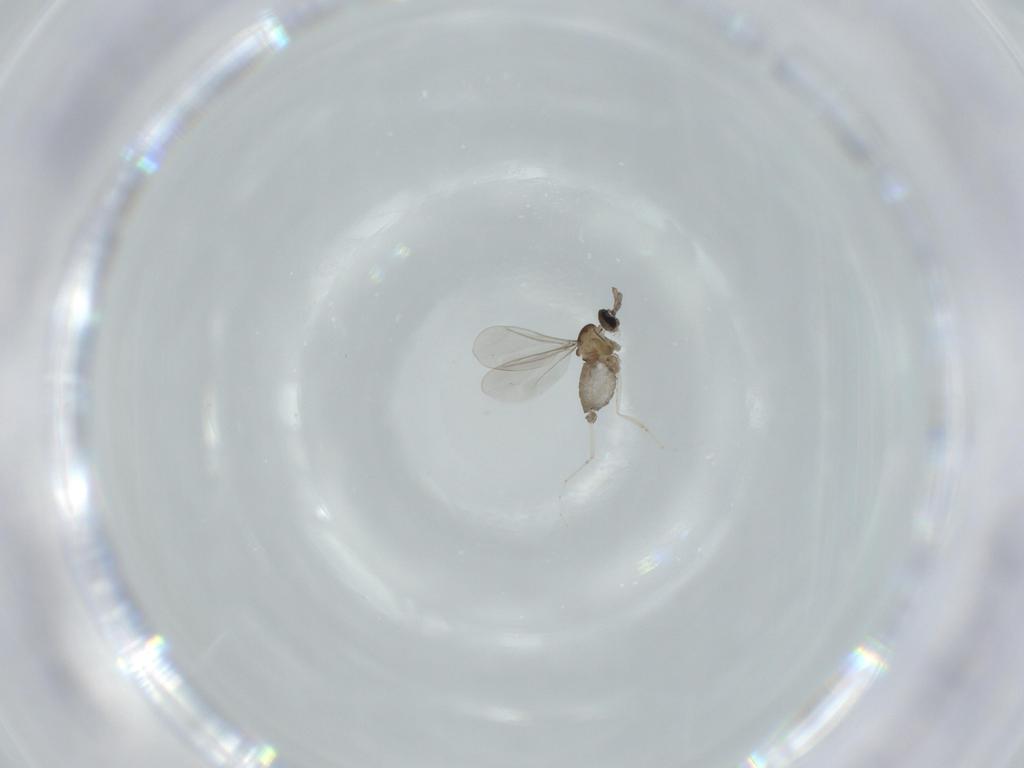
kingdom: Animalia
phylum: Arthropoda
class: Insecta
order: Diptera
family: Cecidomyiidae
